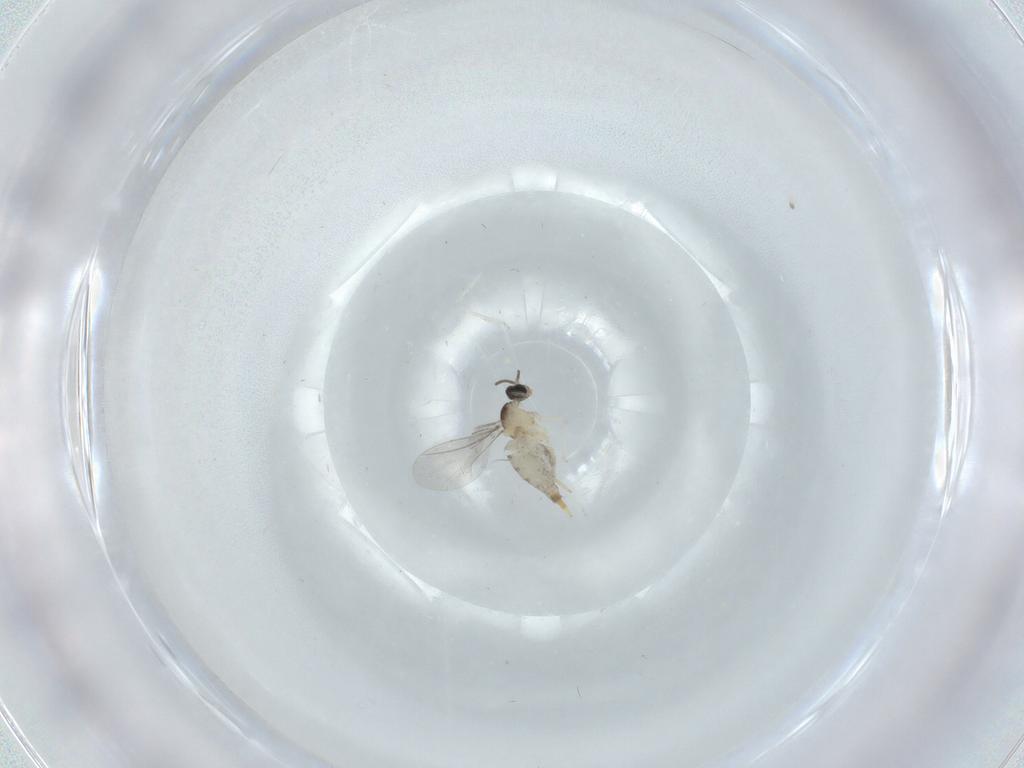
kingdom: Animalia
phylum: Arthropoda
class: Insecta
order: Diptera
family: Cecidomyiidae
